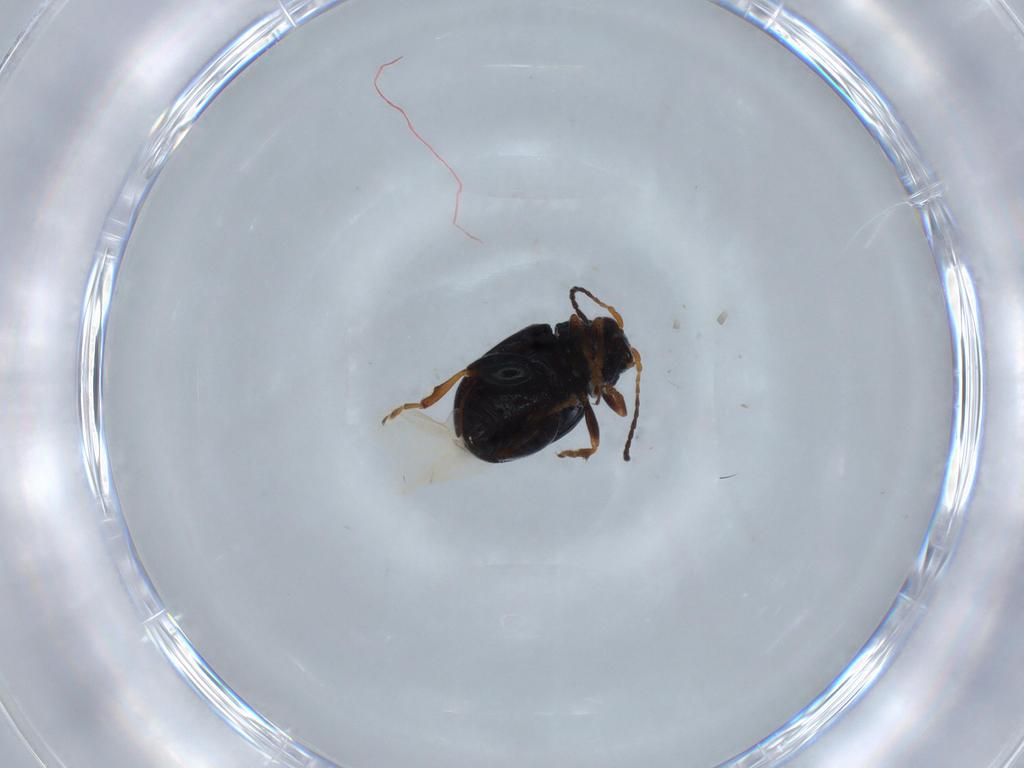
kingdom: Animalia
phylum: Arthropoda
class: Insecta
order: Coleoptera
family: Chrysomelidae
